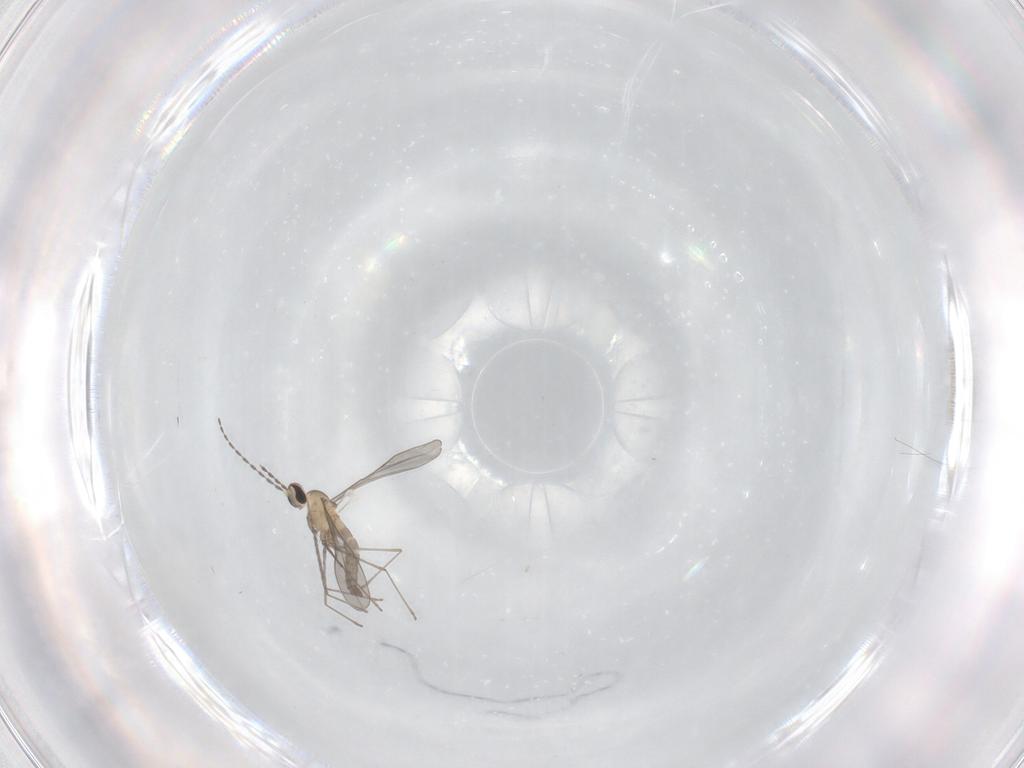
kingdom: Animalia
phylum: Arthropoda
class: Insecta
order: Diptera
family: Cecidomyiidae
